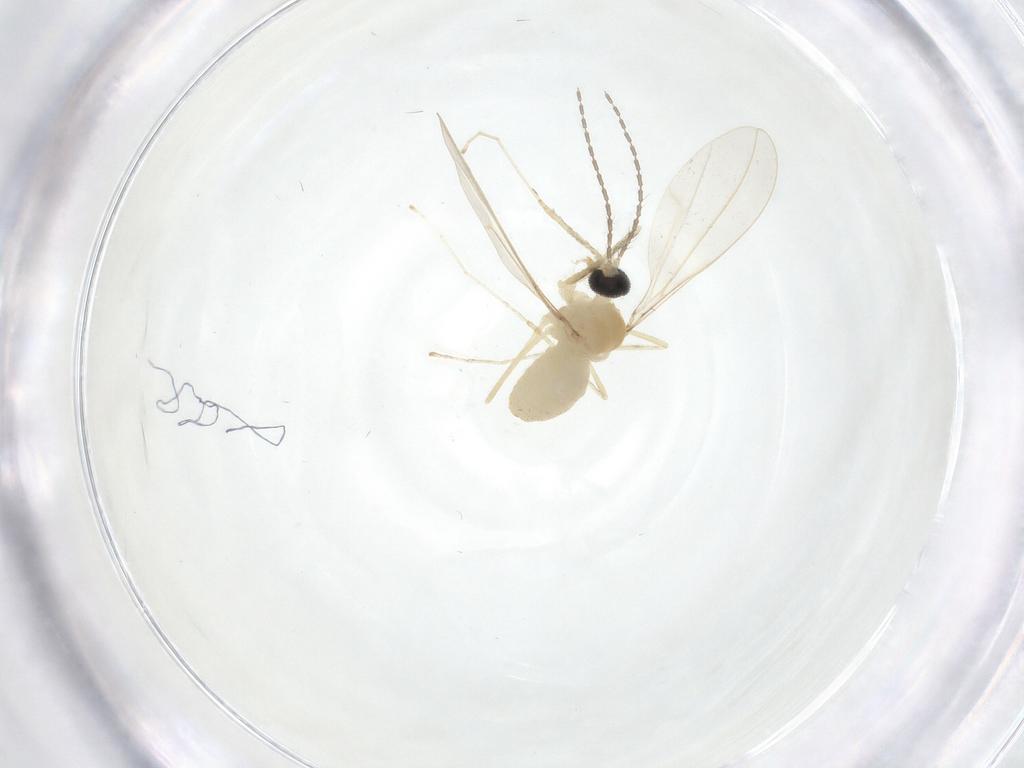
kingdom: Animalia
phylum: Arthropoda
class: Insecta
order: Diptera
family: Cecidomyiidae
